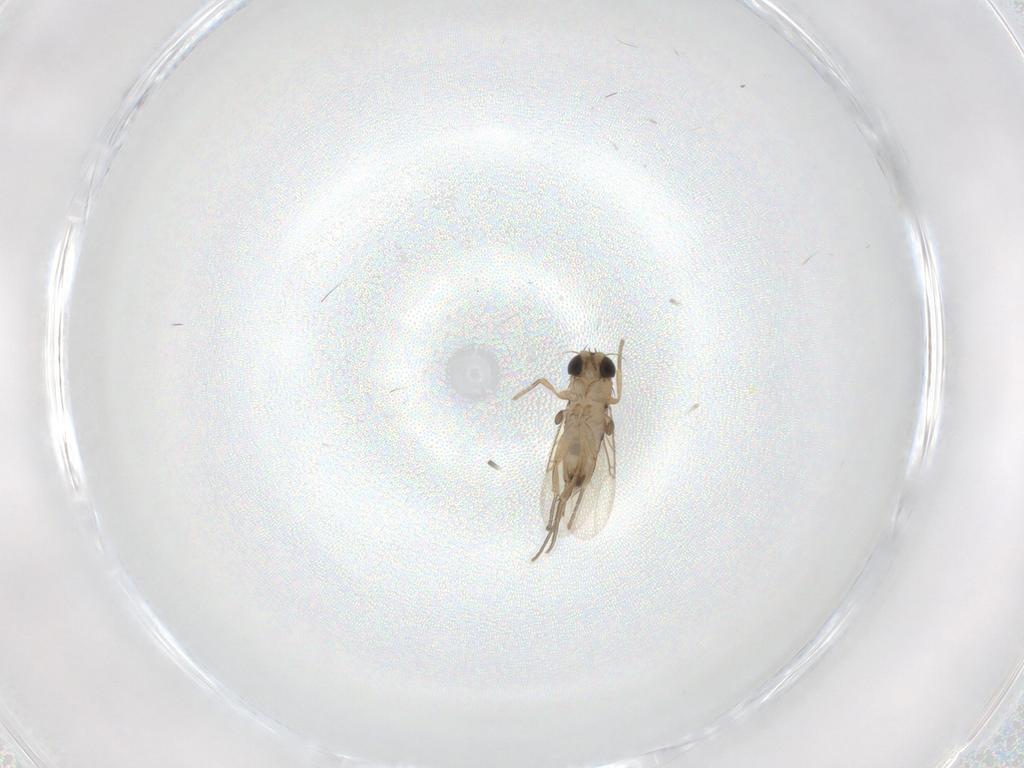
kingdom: Animalia
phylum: Arthropoda
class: Insecta
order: Diptera
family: Phoridae
